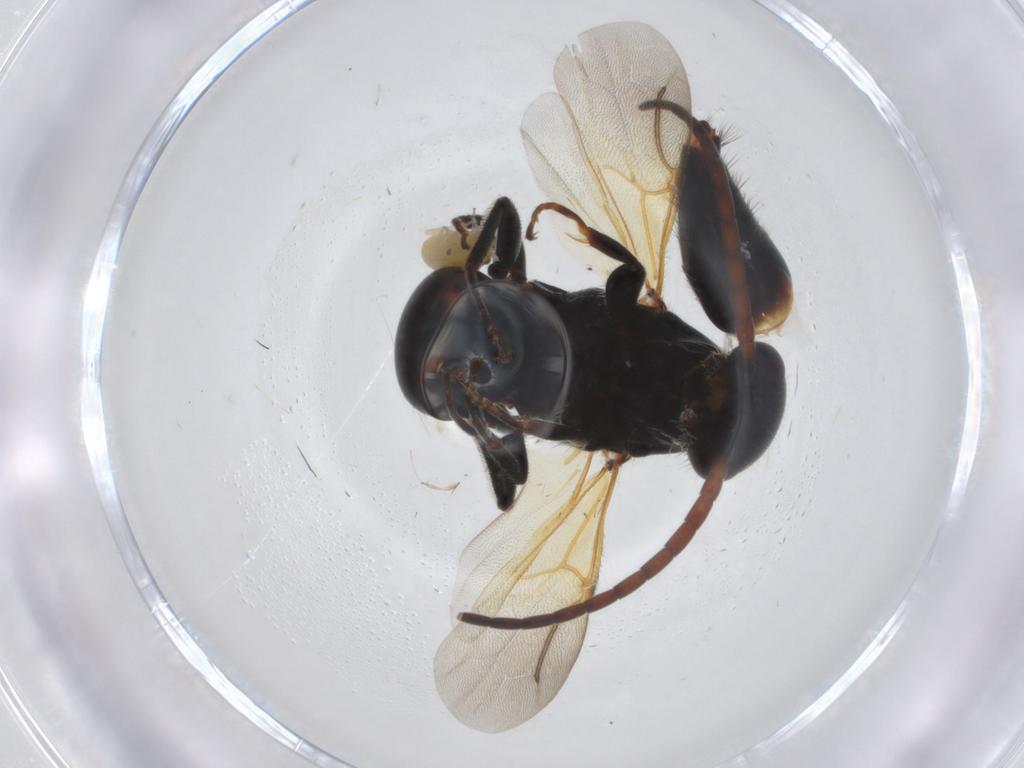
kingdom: Animalia
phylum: Arthropoda
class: Insecta
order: Hymenoptera
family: Bethylidae
